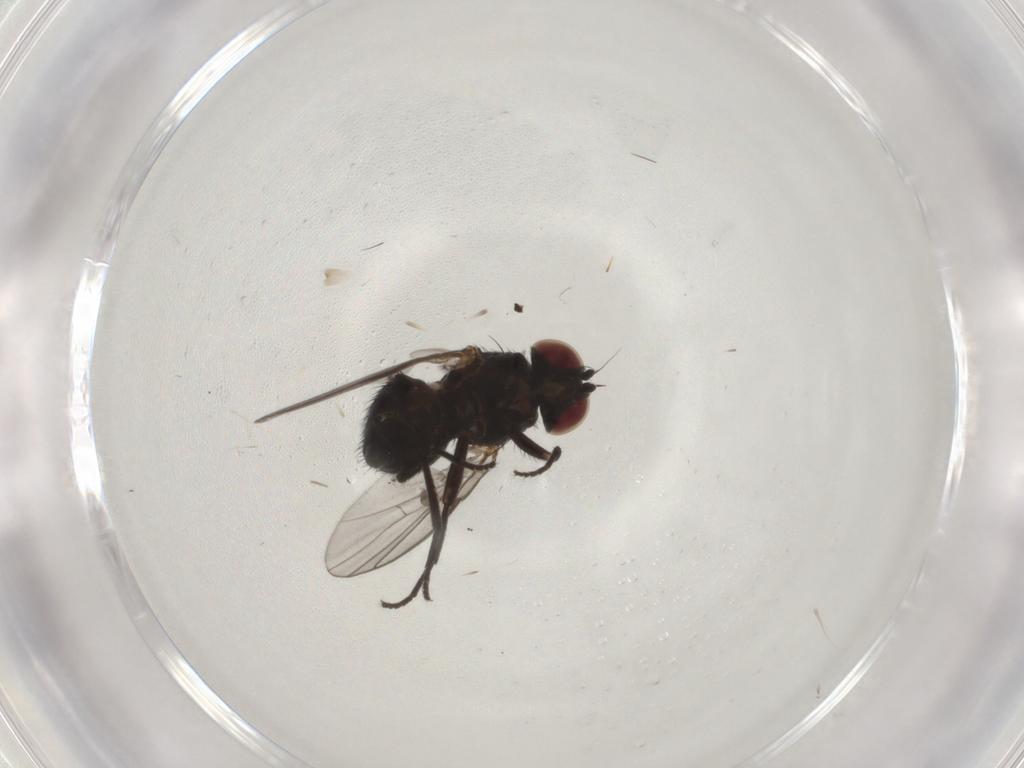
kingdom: Animalia
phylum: Arthropoda
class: Insecta
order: Diptera
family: Agromyzidae
